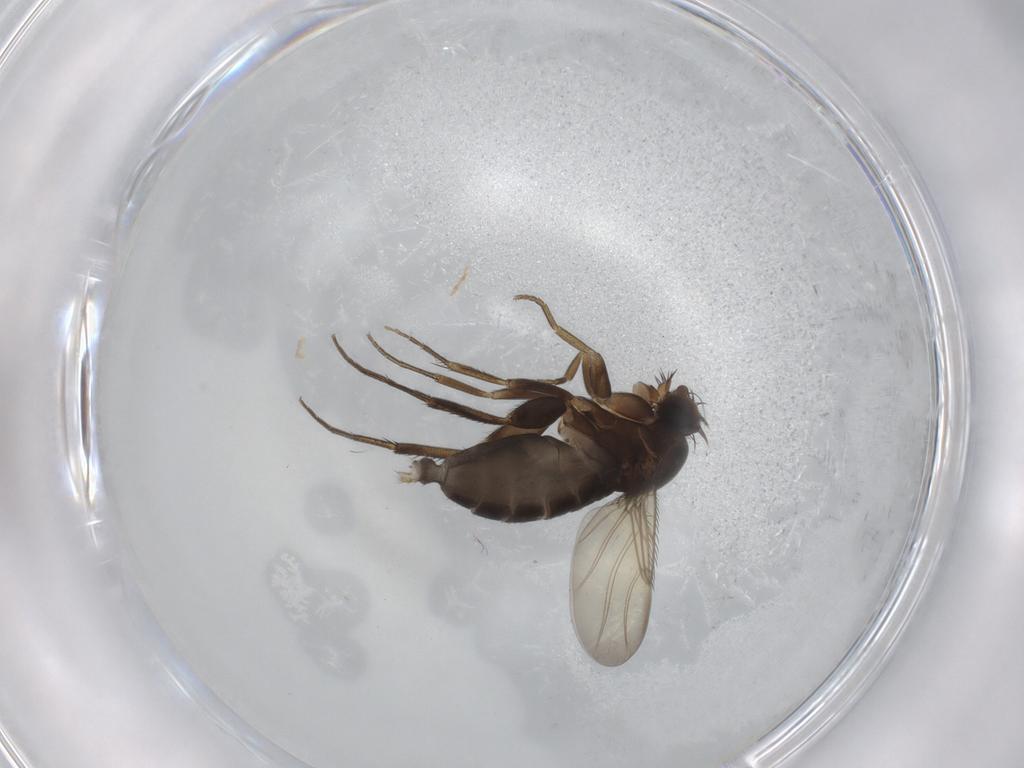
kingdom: Animalia
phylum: Arthropoda
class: Insecta
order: Diptera
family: Phoridae
